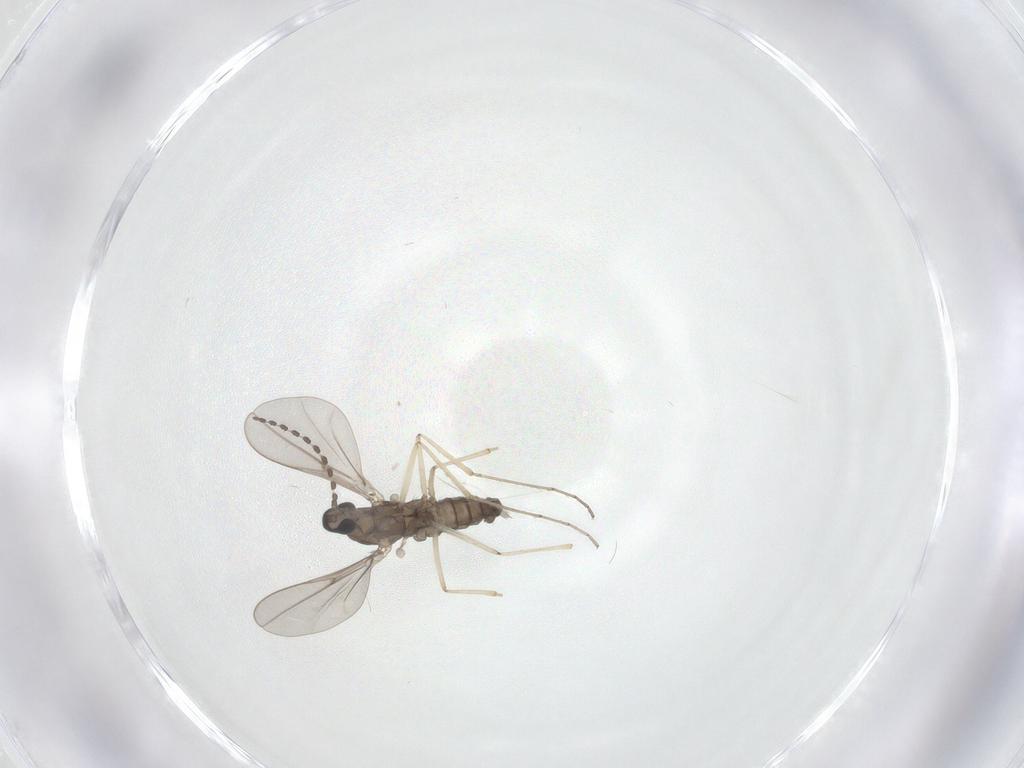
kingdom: Animalia
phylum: Arthropoda
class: Insecta
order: Diptera
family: Cecidomyiidae
